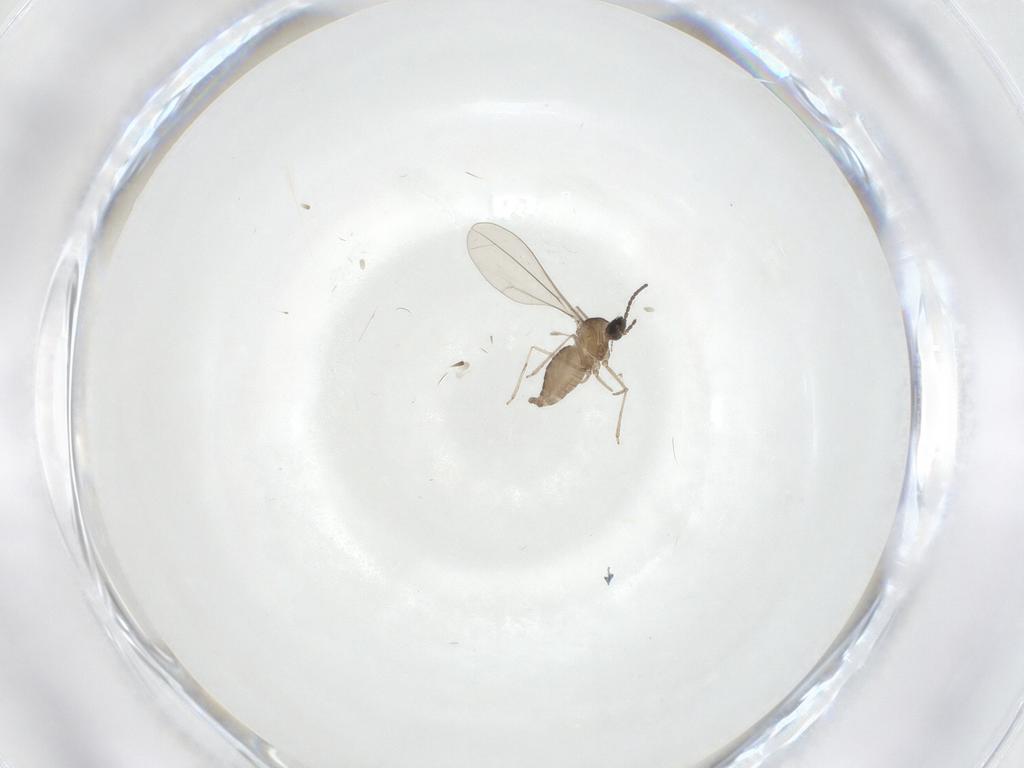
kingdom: Animalia
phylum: Arthropoda
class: Insecta
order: Diptera
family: Cecidomyiidae
